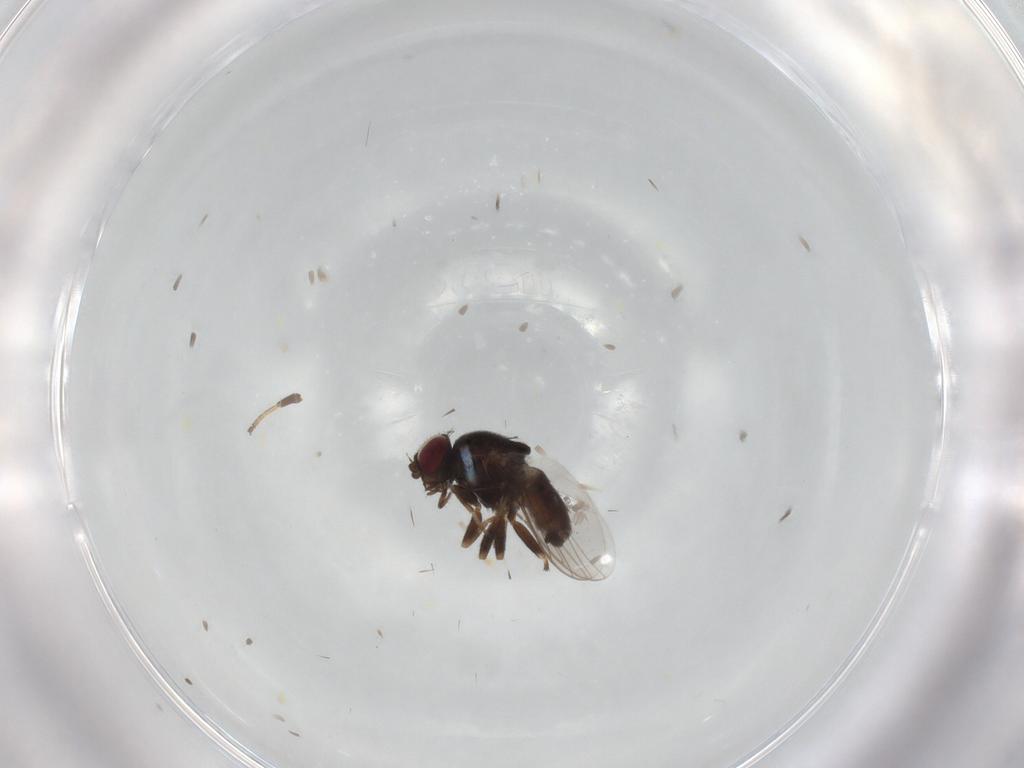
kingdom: Animalia
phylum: Arthropoda
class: Insecta
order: Diptera
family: Chloropidae
